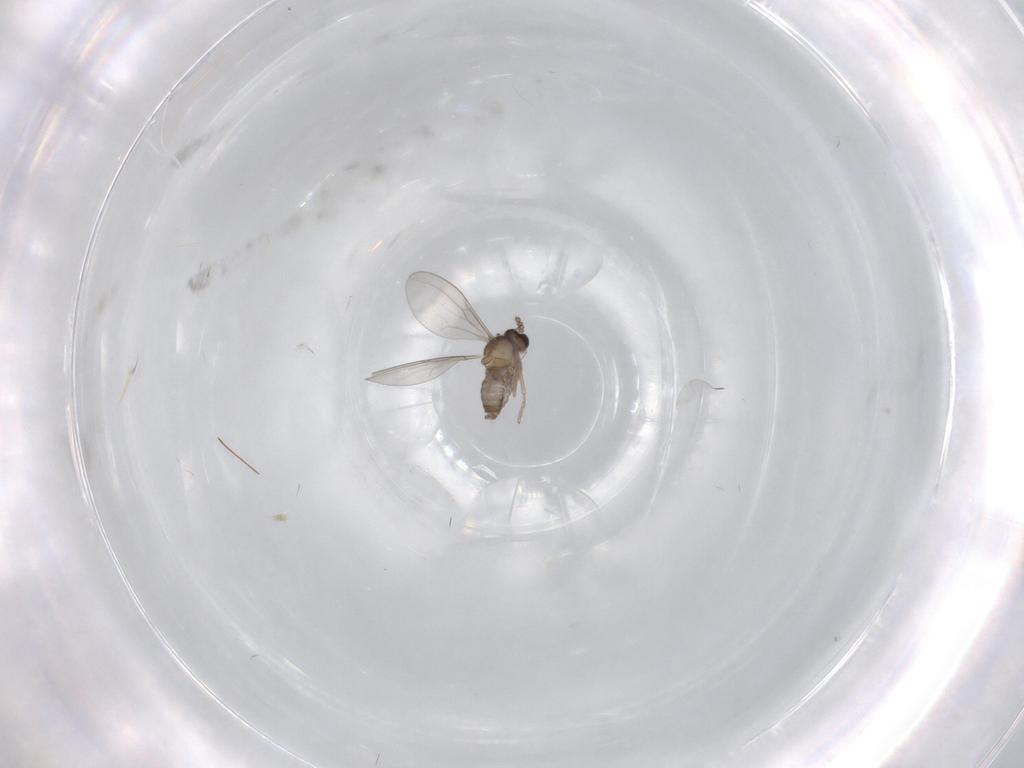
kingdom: Animalia
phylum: Arthropoda
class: Insecta
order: Diptera
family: Cecidomyiidae
